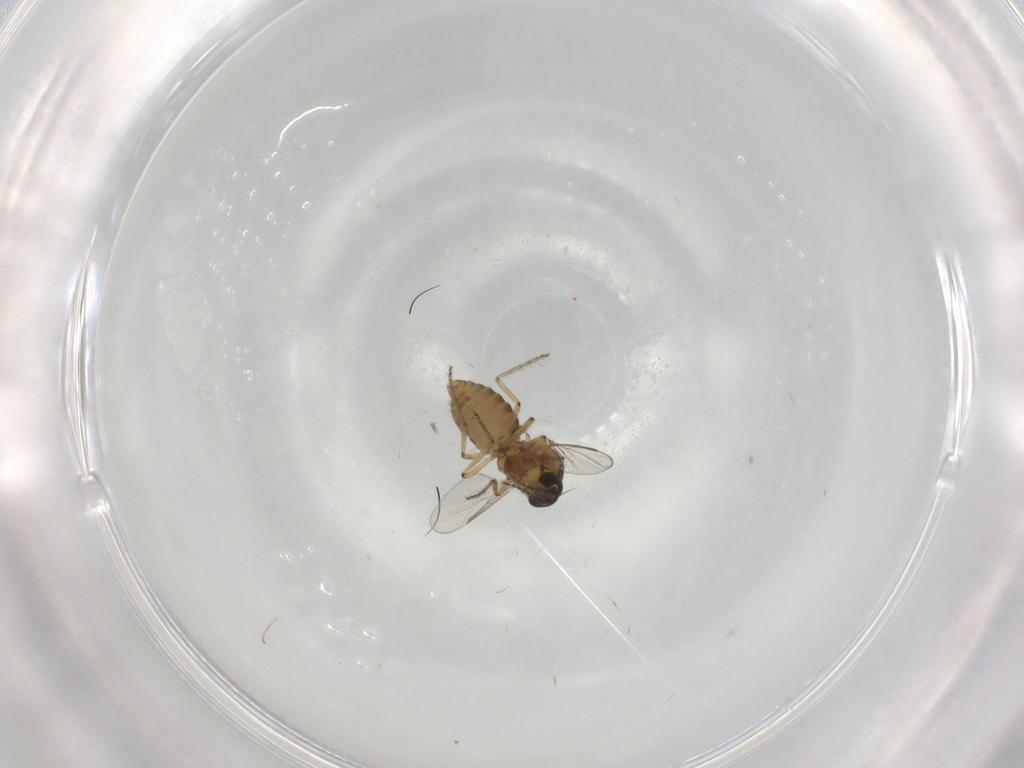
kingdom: Animalia
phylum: Arthropoda
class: Insecta
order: Diptera
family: Ceratopogonidae
